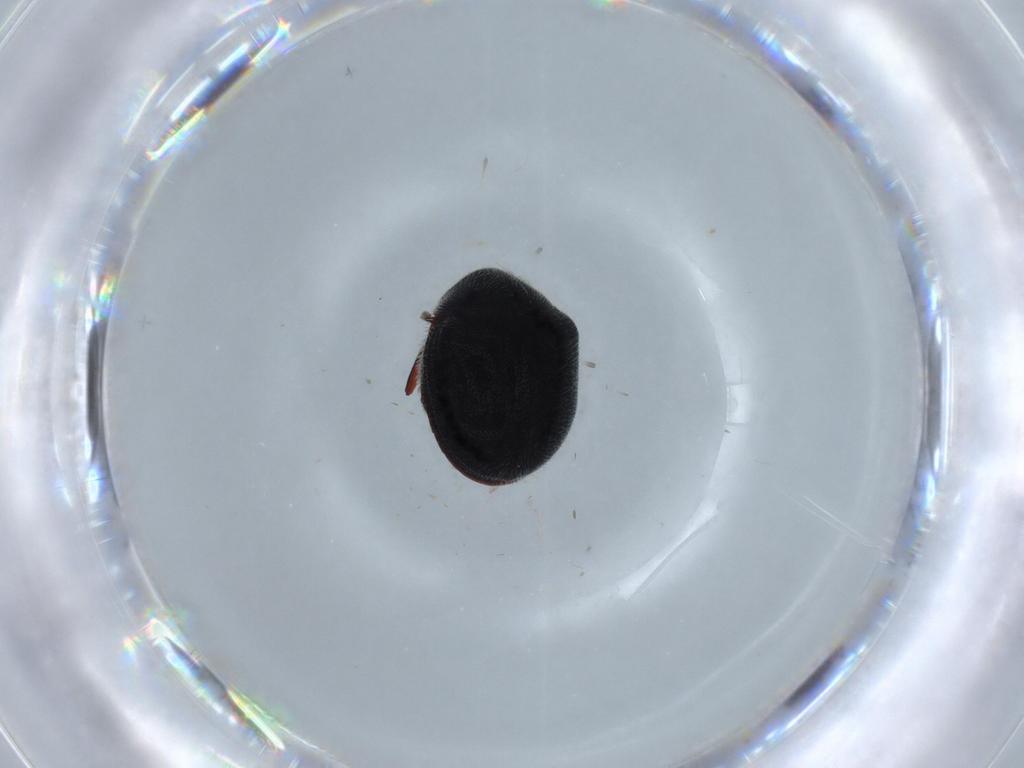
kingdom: Animalia
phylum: Arthropoda
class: Insecta
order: Coleoptera
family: Ptinidae
